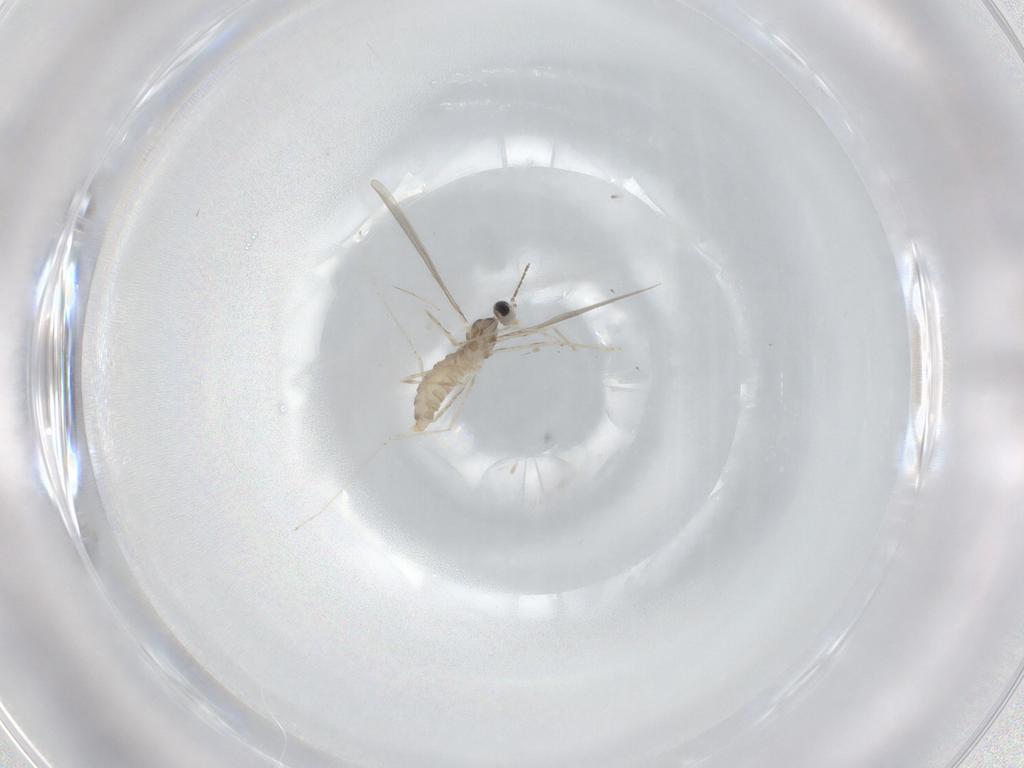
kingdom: Animalia
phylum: Arthropoda
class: Insecta
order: Diptera
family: Cecidomyiidae
